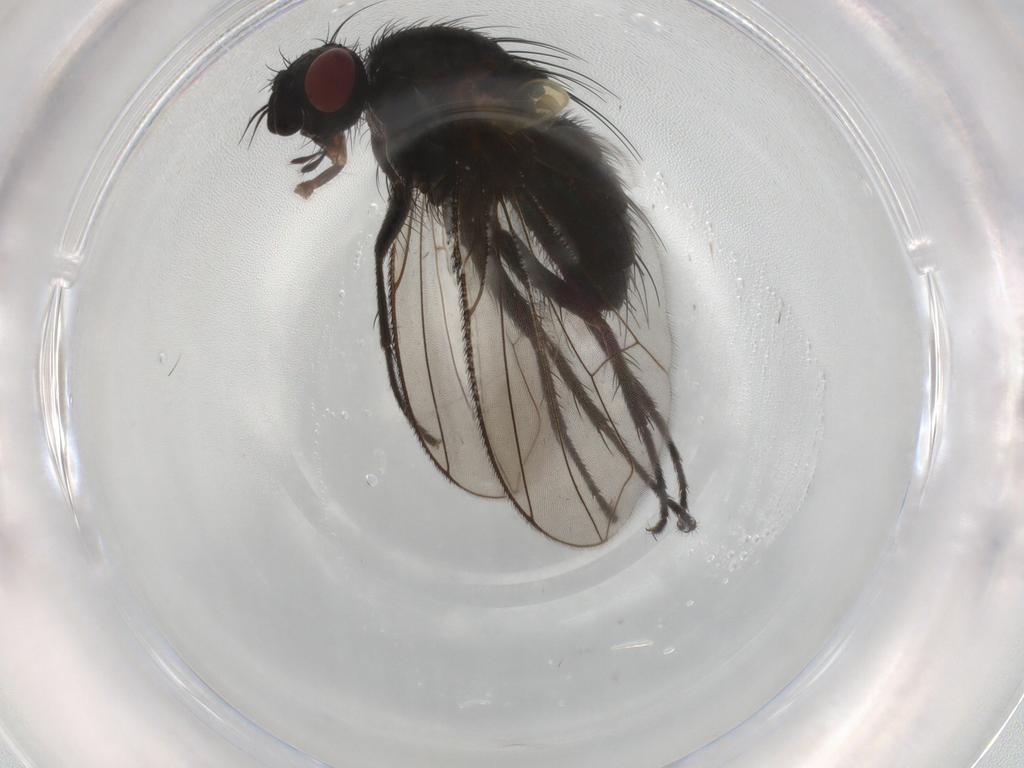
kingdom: Animalia
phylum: Arthropoda
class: Insecta
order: Diptera
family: Tachinidae
